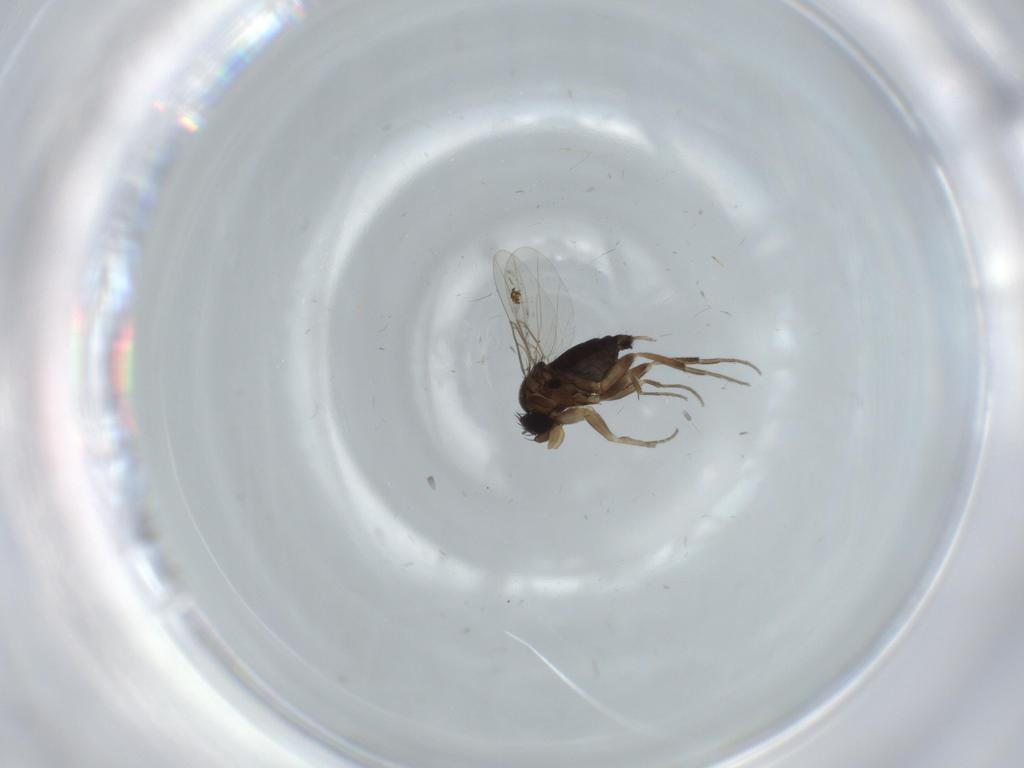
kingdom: Animalia
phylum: Arthropoda
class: Insecta
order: Diptera
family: Phoridae
